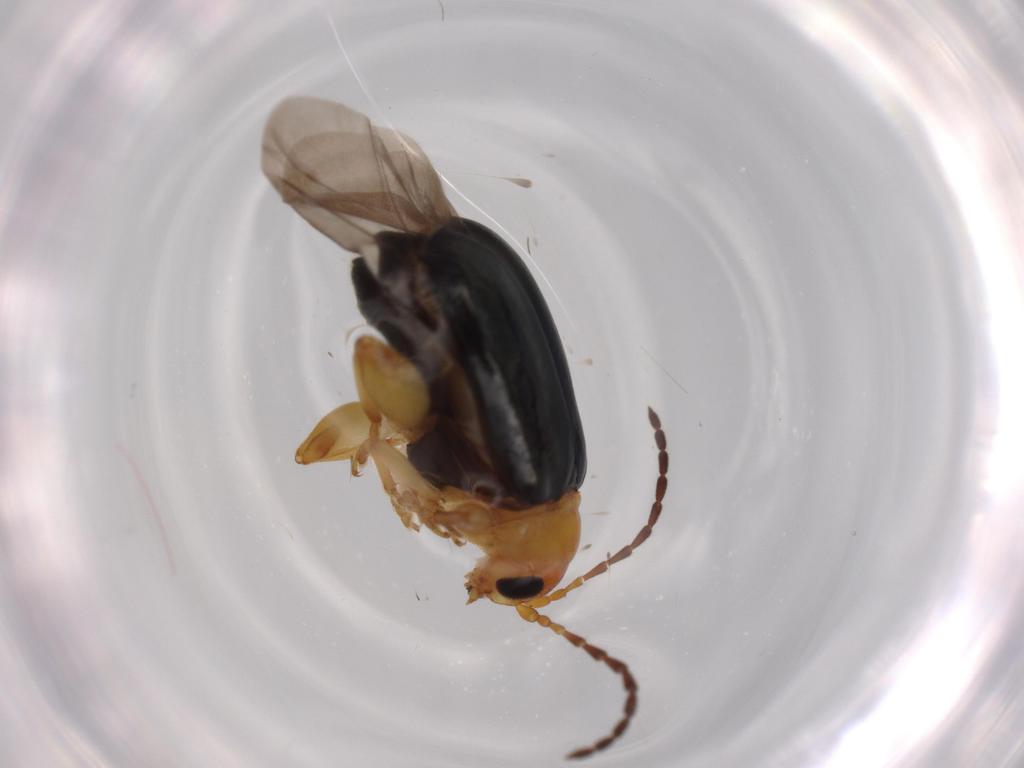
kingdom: Animalia
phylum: Arthropoda
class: Insecta
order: Coleoptera
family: Chrysomelidae
